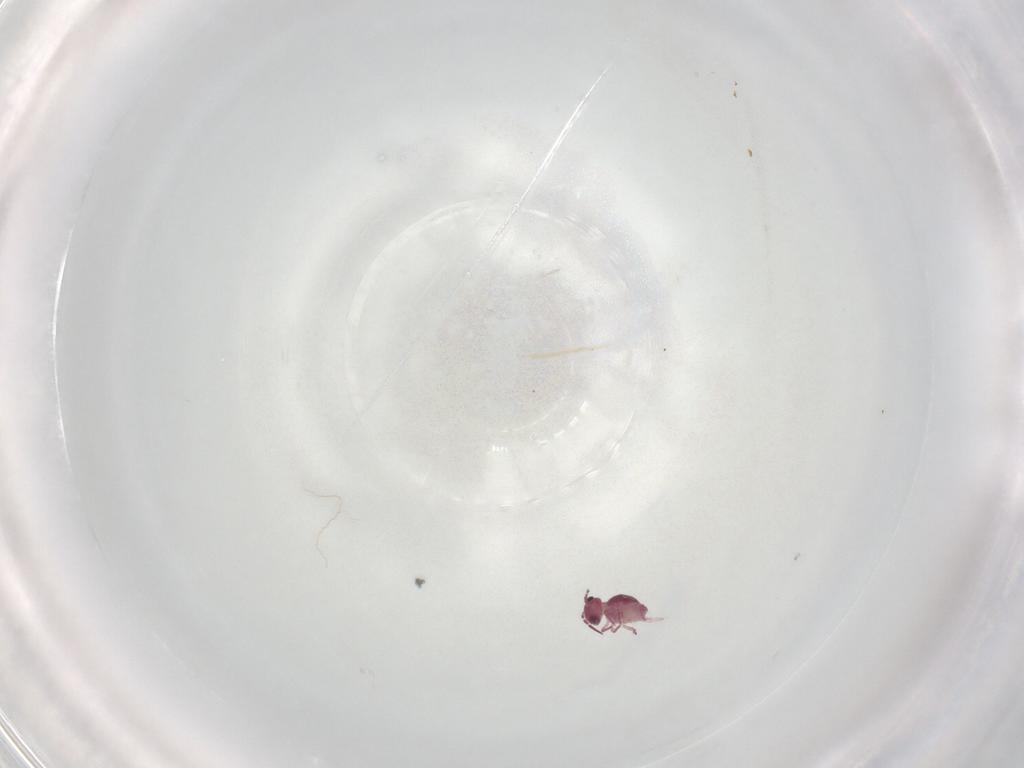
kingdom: Animalia
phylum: Arthropoda
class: Collembola
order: Symphypleona
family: Sminthurididae
